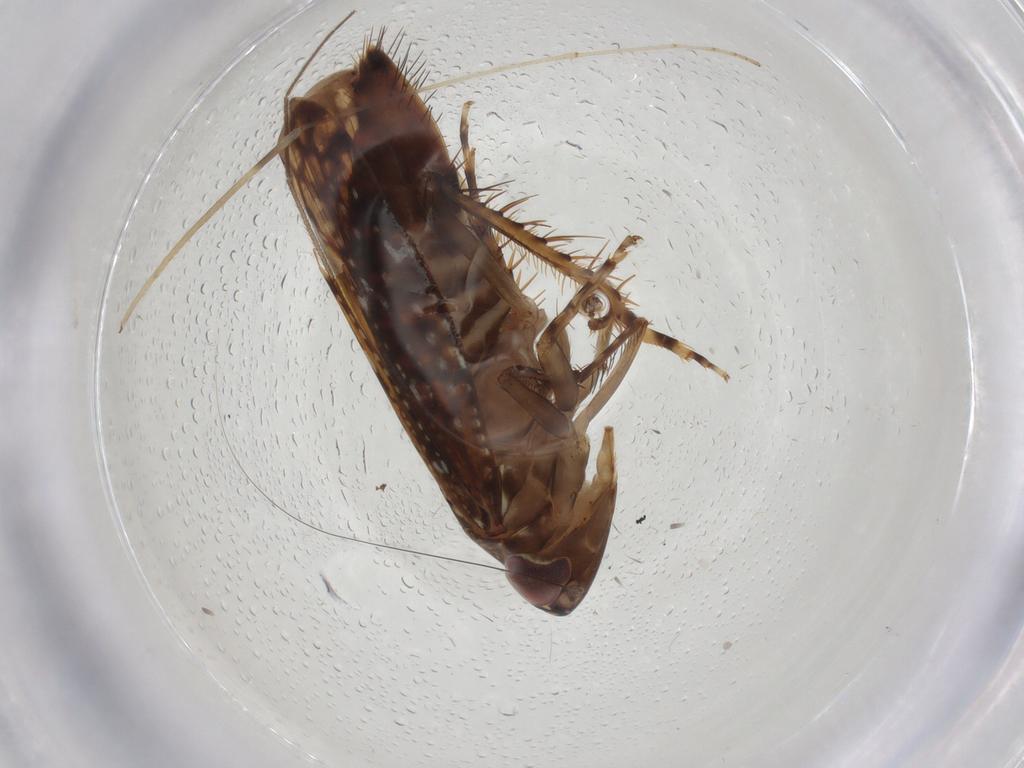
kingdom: Animalia
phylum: Arthropoda
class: Insecta
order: Hemiptera
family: Cicadellidae
